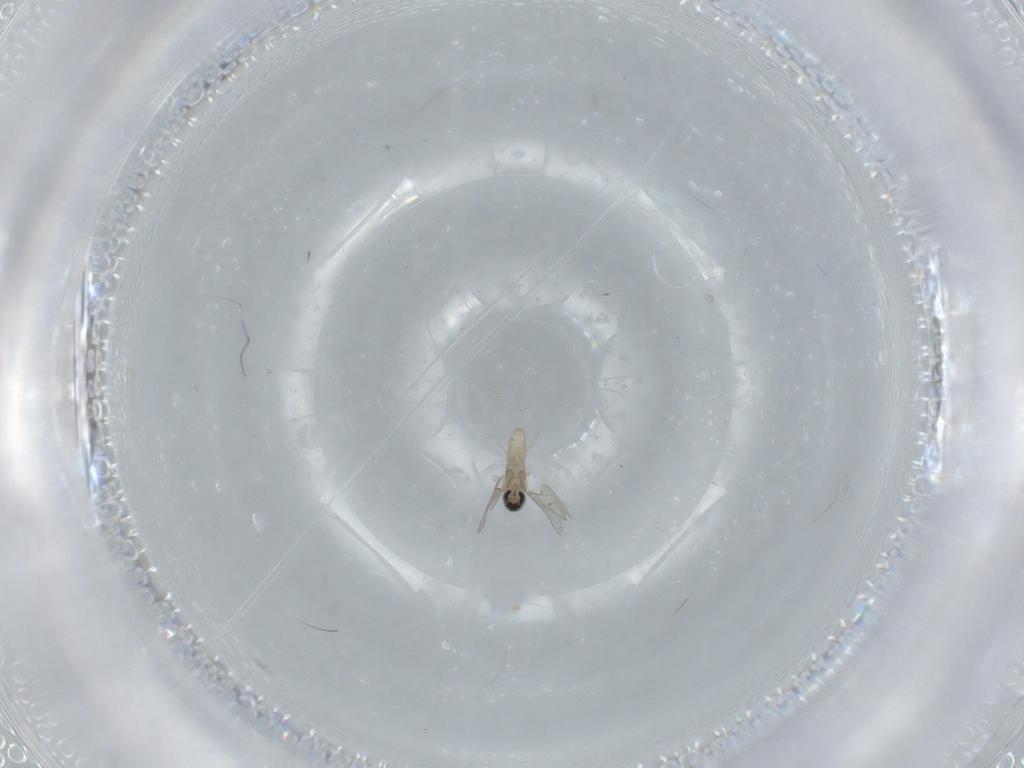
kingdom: Animalia
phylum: Arthropoda
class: Insecta
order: Diptera
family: Cecidomyiidae
